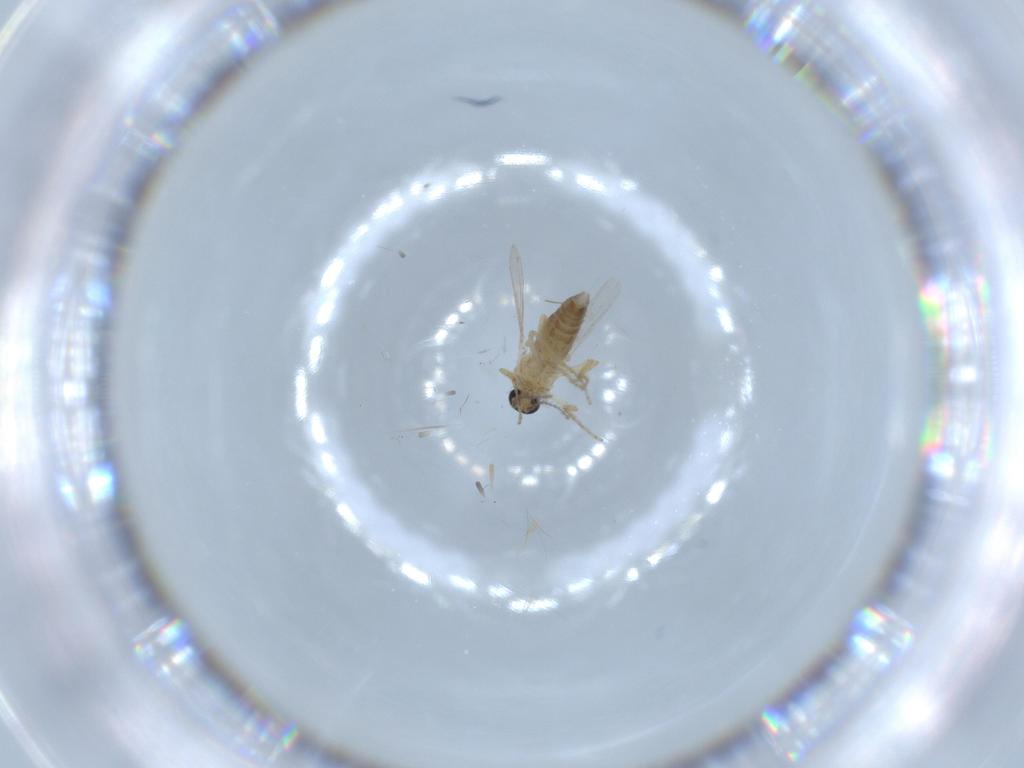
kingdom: Animalia
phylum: Arthropoda
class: Insecta
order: Diptera
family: Ceratopogonidae
